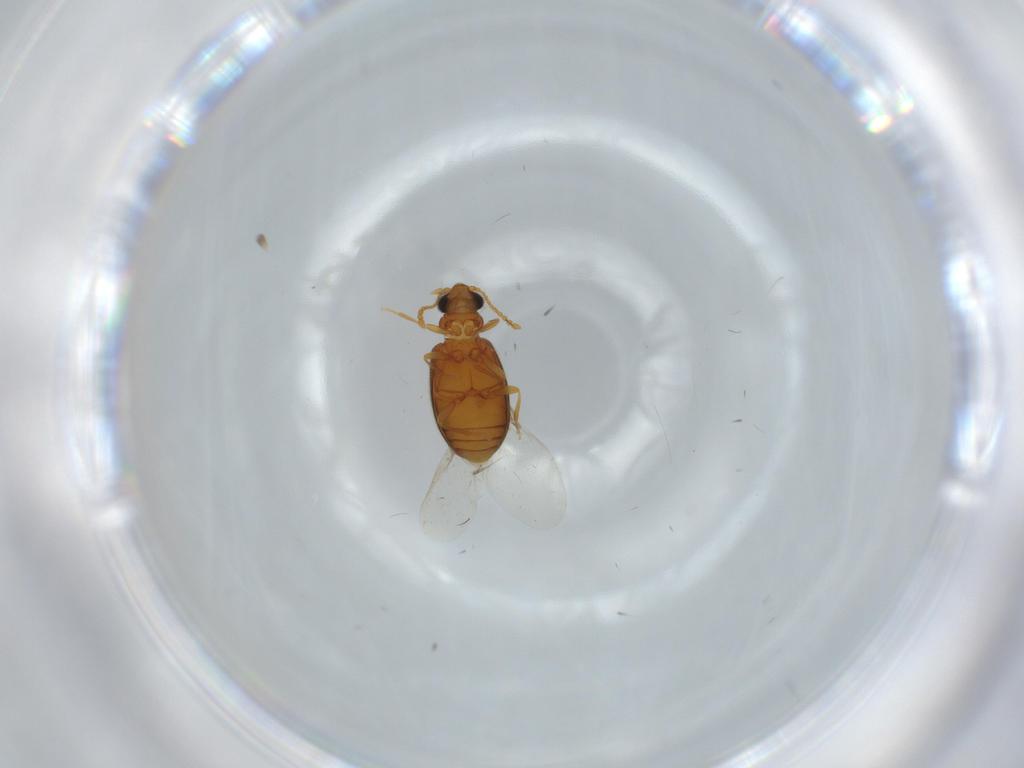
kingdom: Animalia
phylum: Arthropoda
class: Insecta
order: Coleoptera
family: Aderidae
